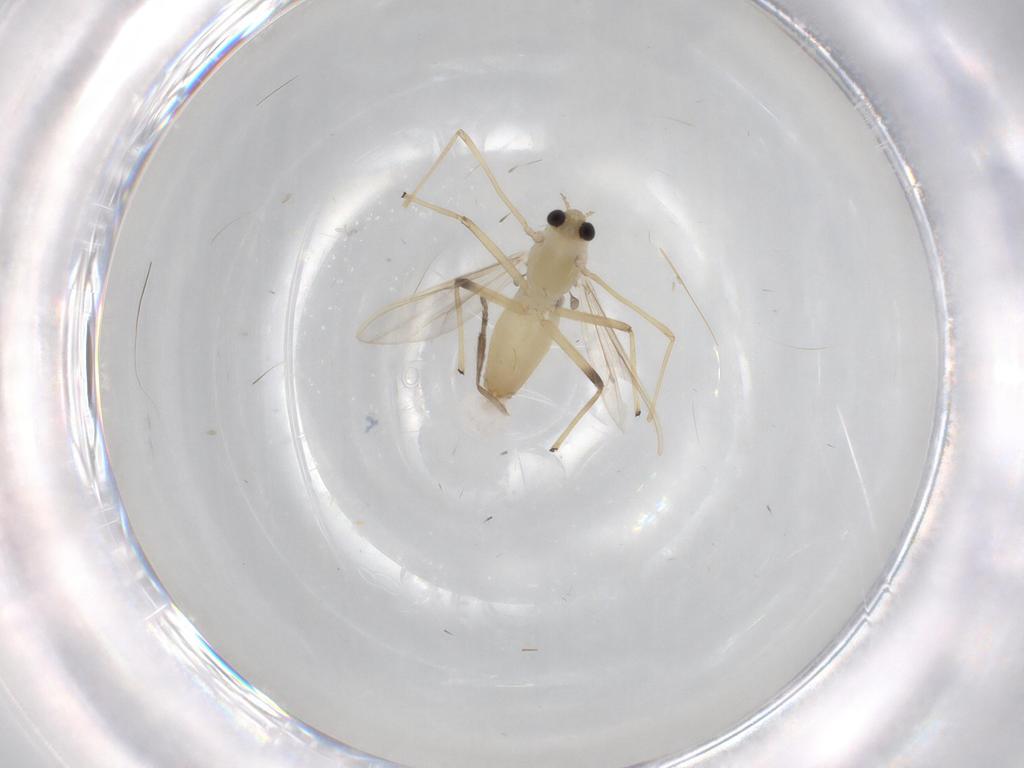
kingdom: Animalia
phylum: Arthropoda
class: Insecta
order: Diptera
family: Chironomidae
